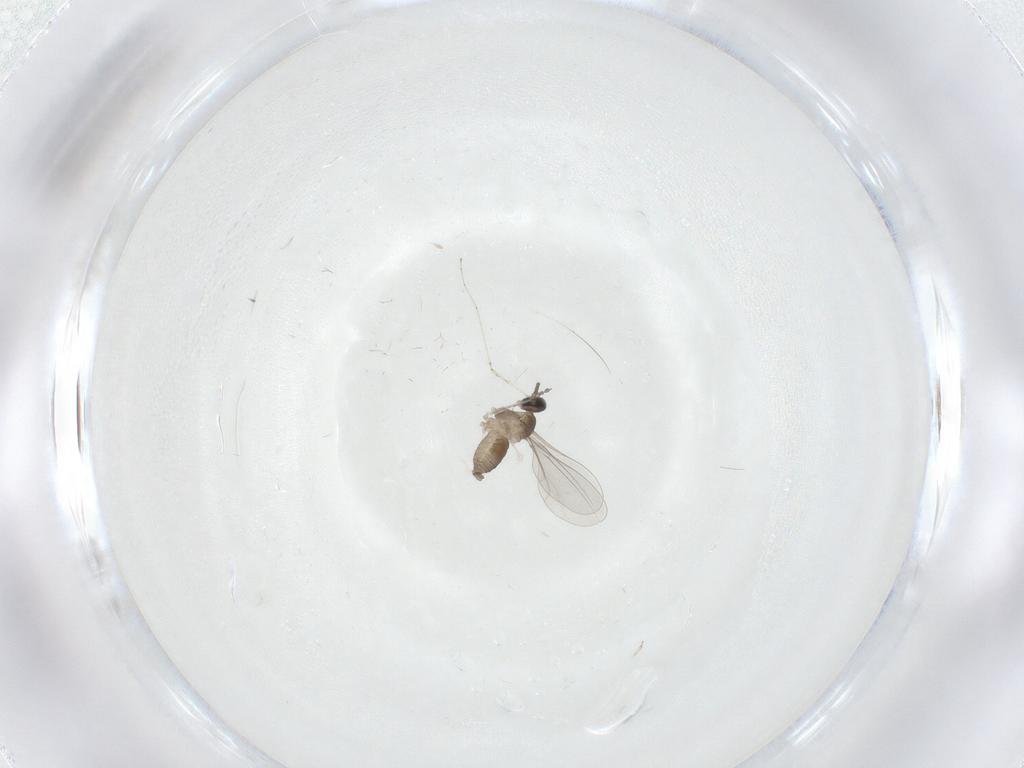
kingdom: Animalia
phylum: Arthropoda
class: Insecta
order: Diptera
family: Cecidomyiidae
